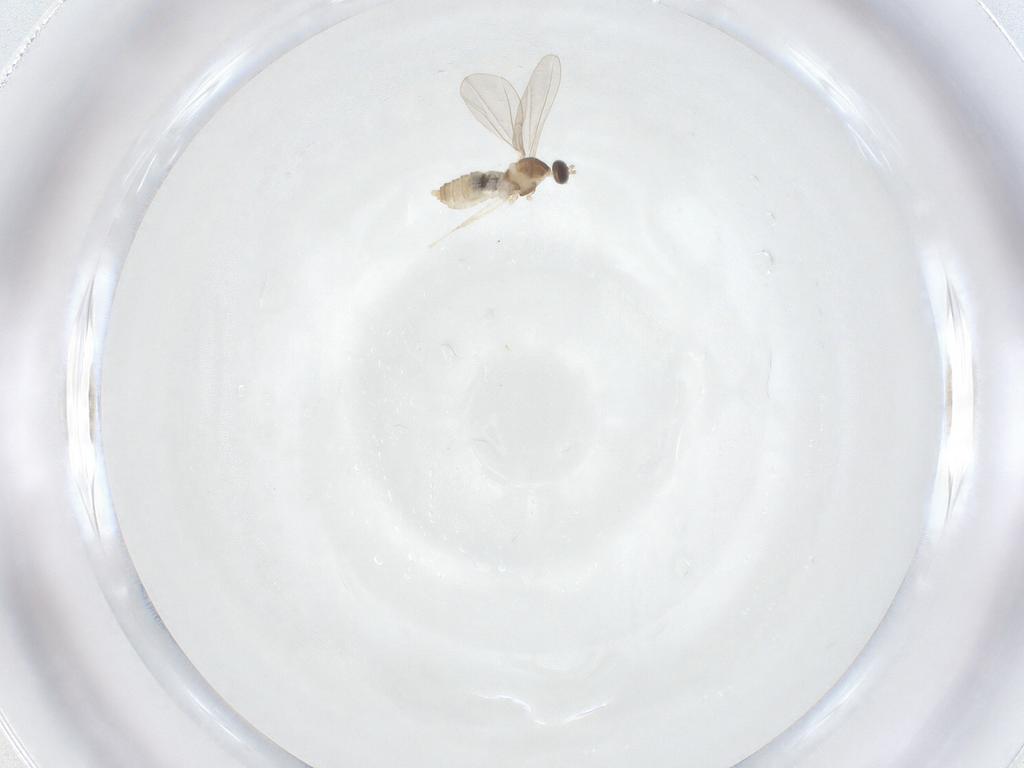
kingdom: Animalia
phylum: Arthropoda
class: Insecta
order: Diptera
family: Cecidomyiidae
